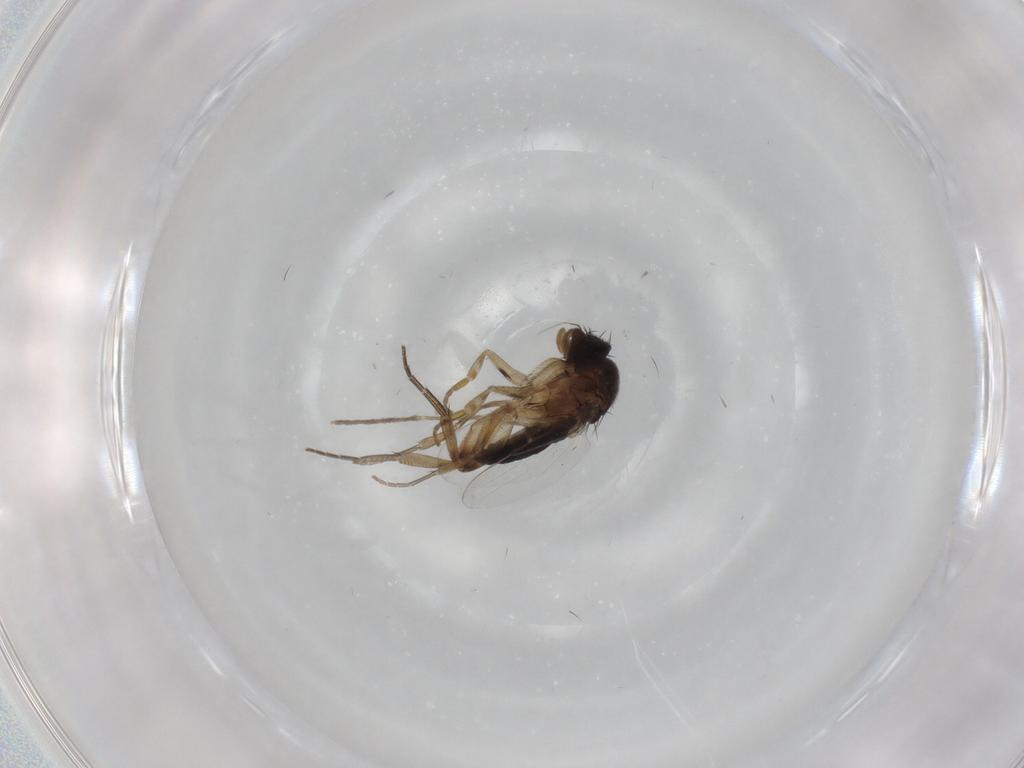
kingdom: Animalia
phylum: Arthropoda
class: Insecta
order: Diptera
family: Phoridae
